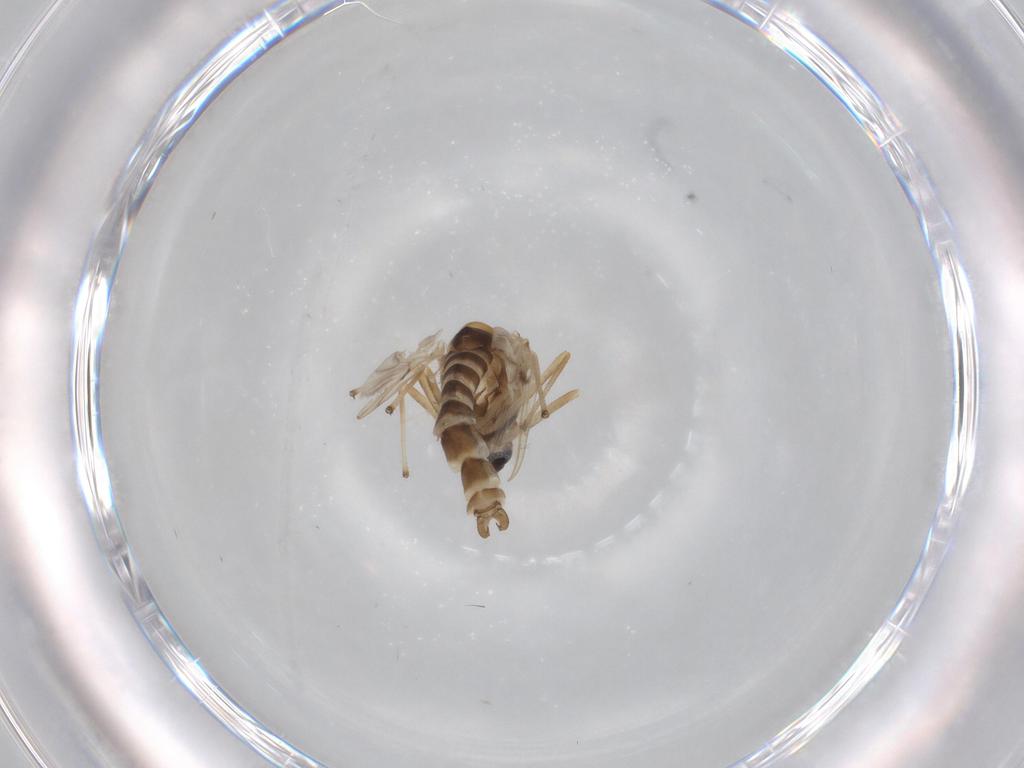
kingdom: Animalia
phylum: Arthropoda
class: Insecta
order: Diptera
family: Chironomidae
